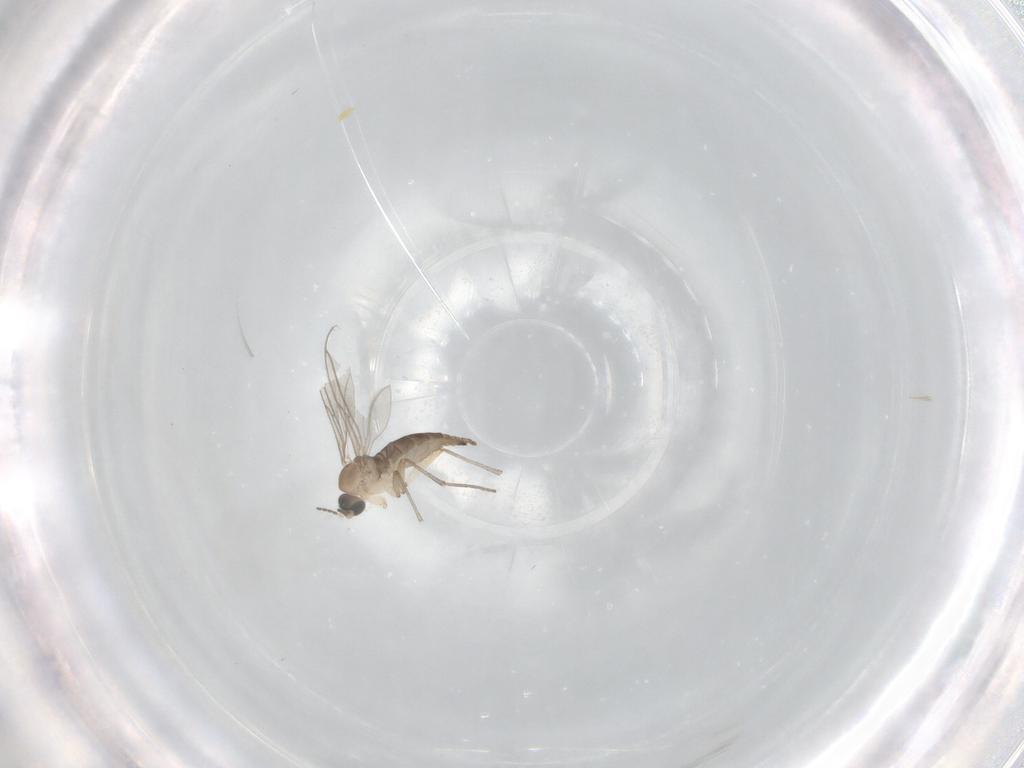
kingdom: Animalia
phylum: Arthropoda
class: Insecta
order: Diptera
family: Sciaridae
